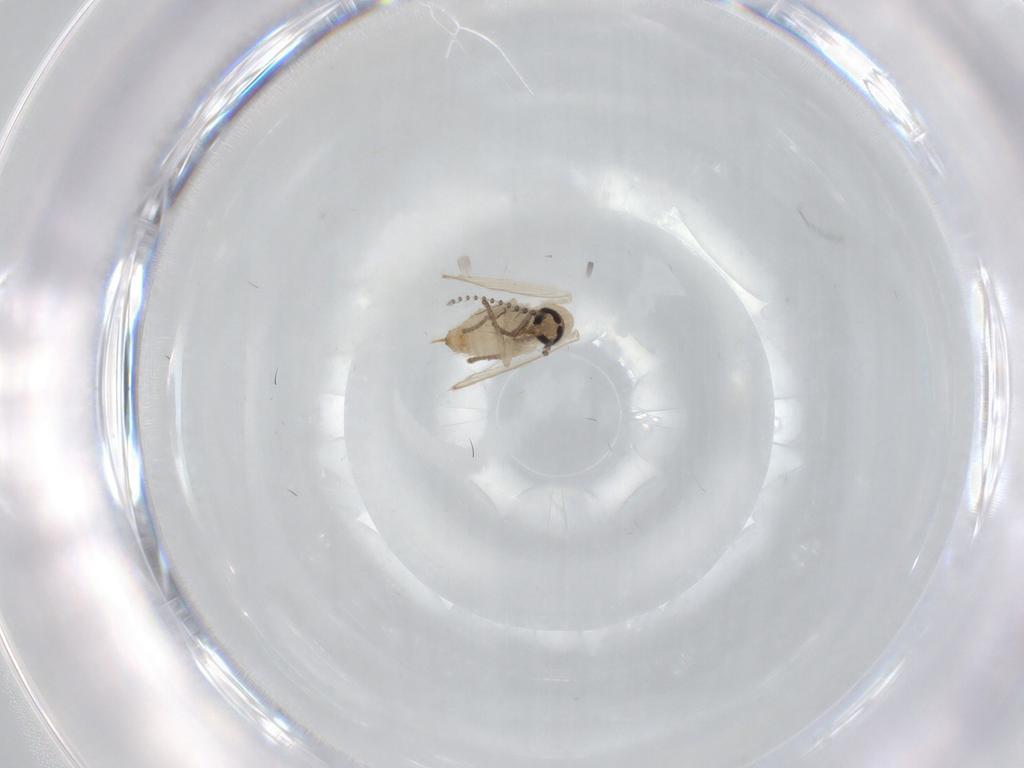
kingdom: Animalia
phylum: Arthropoda
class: Insecta
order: Diptera
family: Psychodidae
